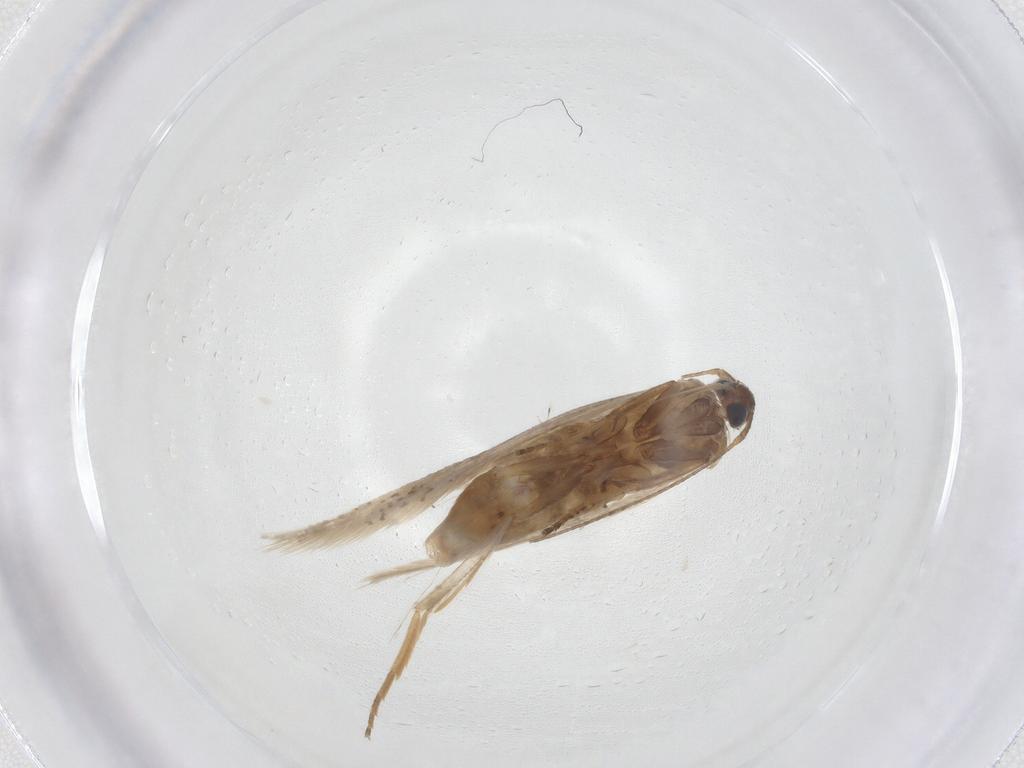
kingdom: Animalia
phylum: Arthropoda
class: Insecta
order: Lepidoptera
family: Gelechiidae
